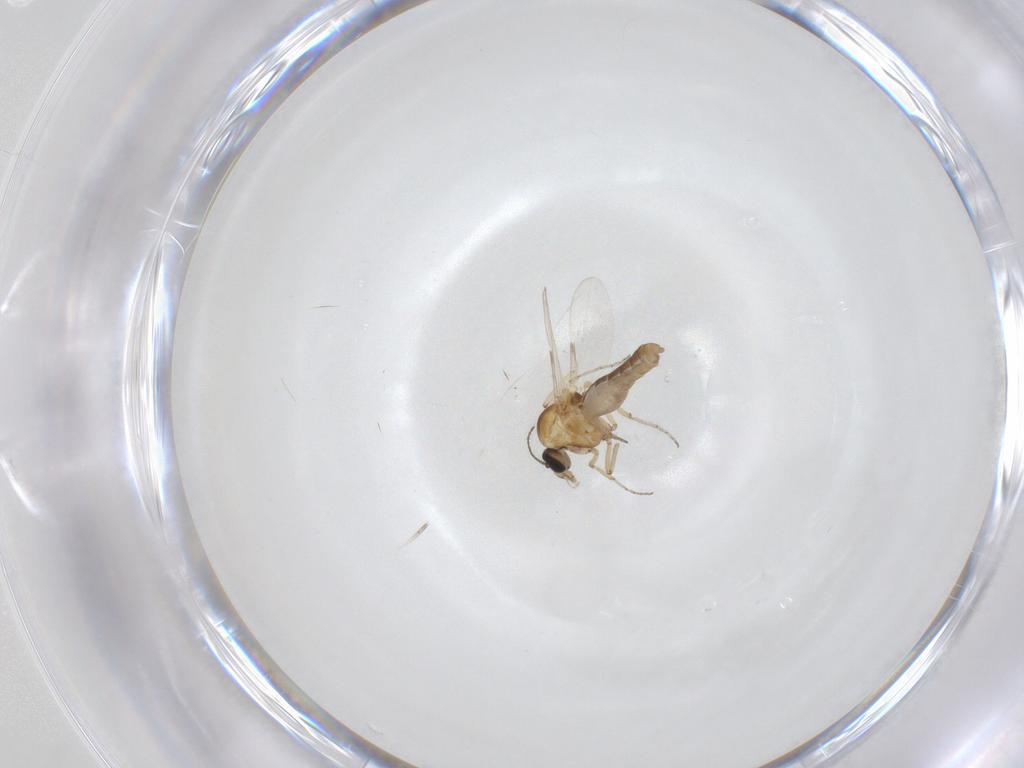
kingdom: Animalia
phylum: Arthropoda
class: Insecta
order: Diptera
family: Ceratopogonidae
